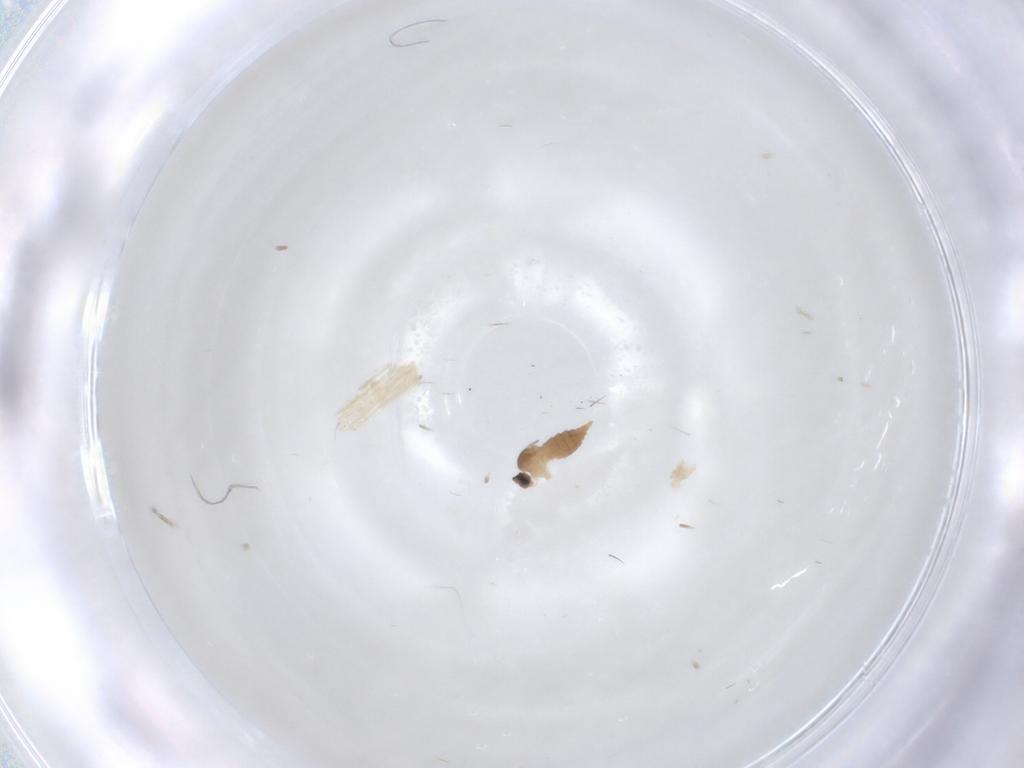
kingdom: Animalia
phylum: Arthropoda
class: Insecta
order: Diptera
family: Cecidomyiidae
